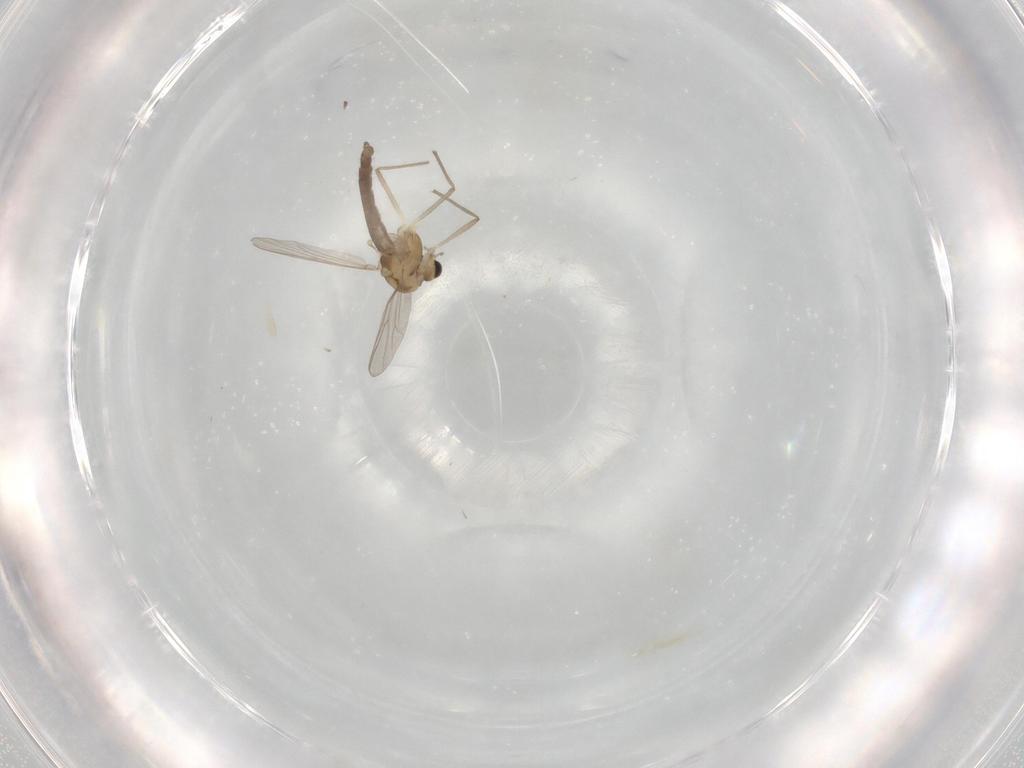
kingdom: Animalia
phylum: Arthropoda
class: Insecta
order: Diptera
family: Chironomidae
